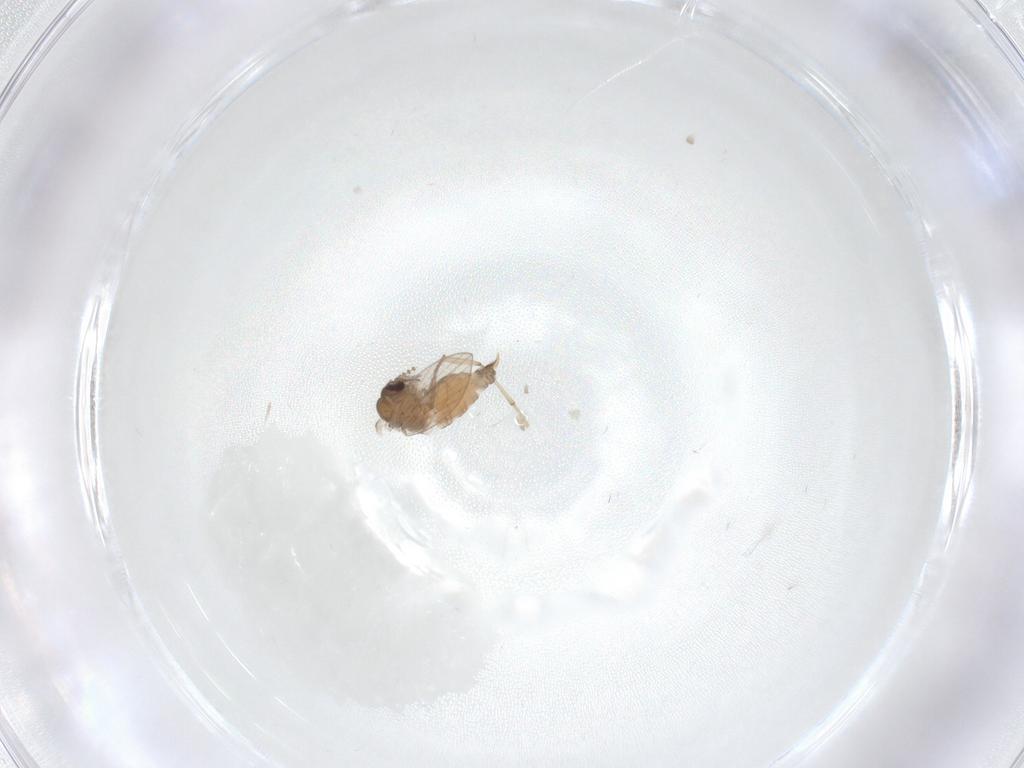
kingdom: Animalia
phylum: Arthropoda
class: Insecta
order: Diptera
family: Psychodidae
